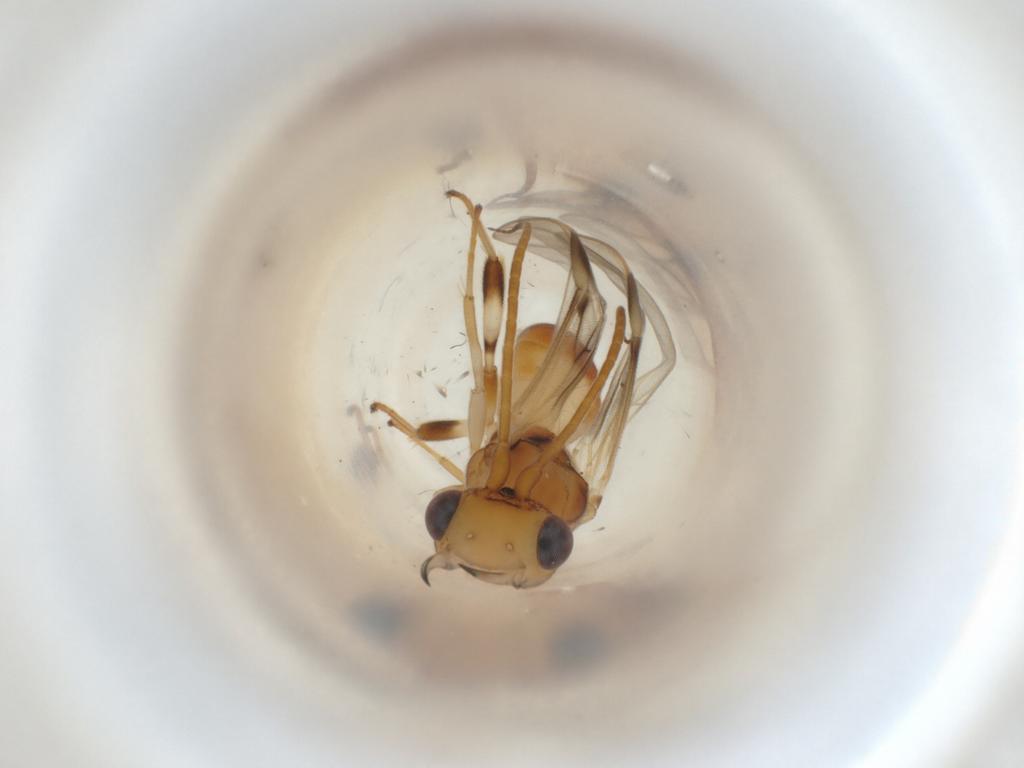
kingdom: Animalia
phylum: Arthropoda
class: Insecta
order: Hymenoptera
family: Braconidae
